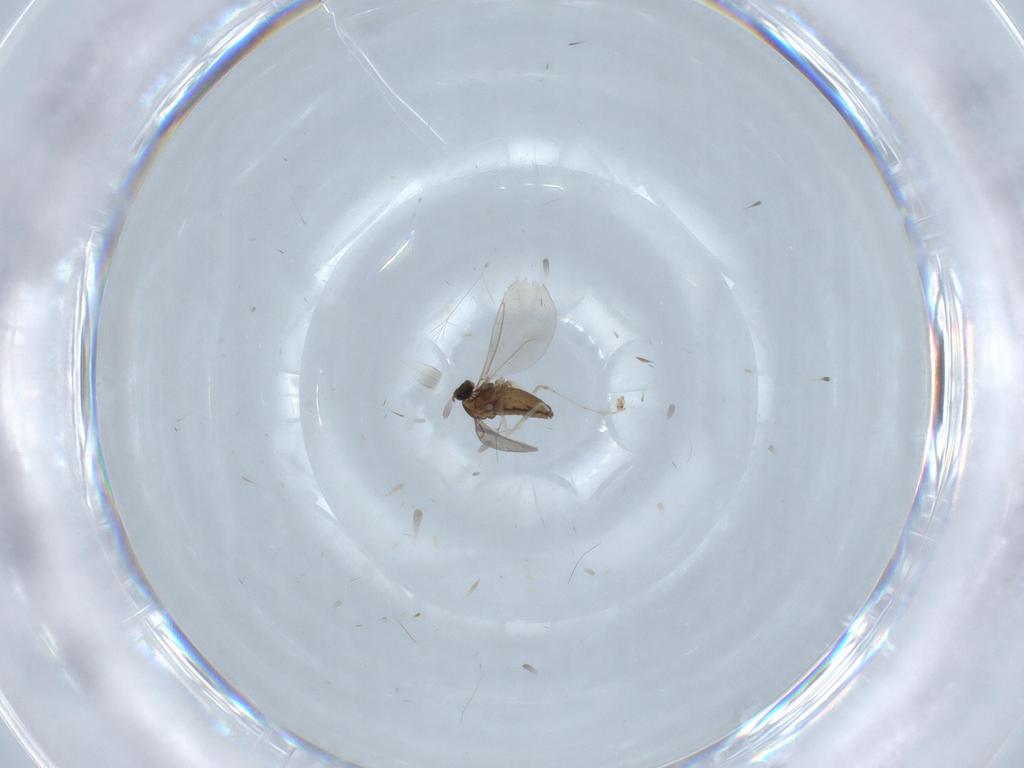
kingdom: Animalia
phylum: Arthropoda
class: Insecta
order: Diptera
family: Cecidomyiidae
